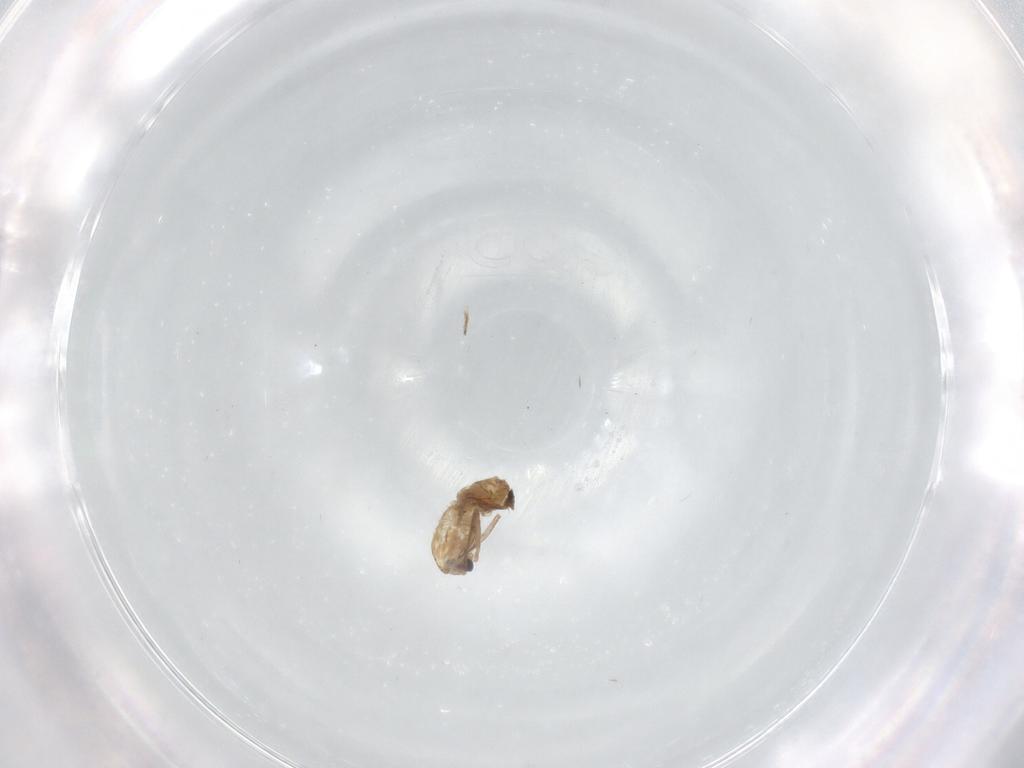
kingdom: Animalia
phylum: Arthropoda
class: Insecta
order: Diptera
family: Chironomidae
